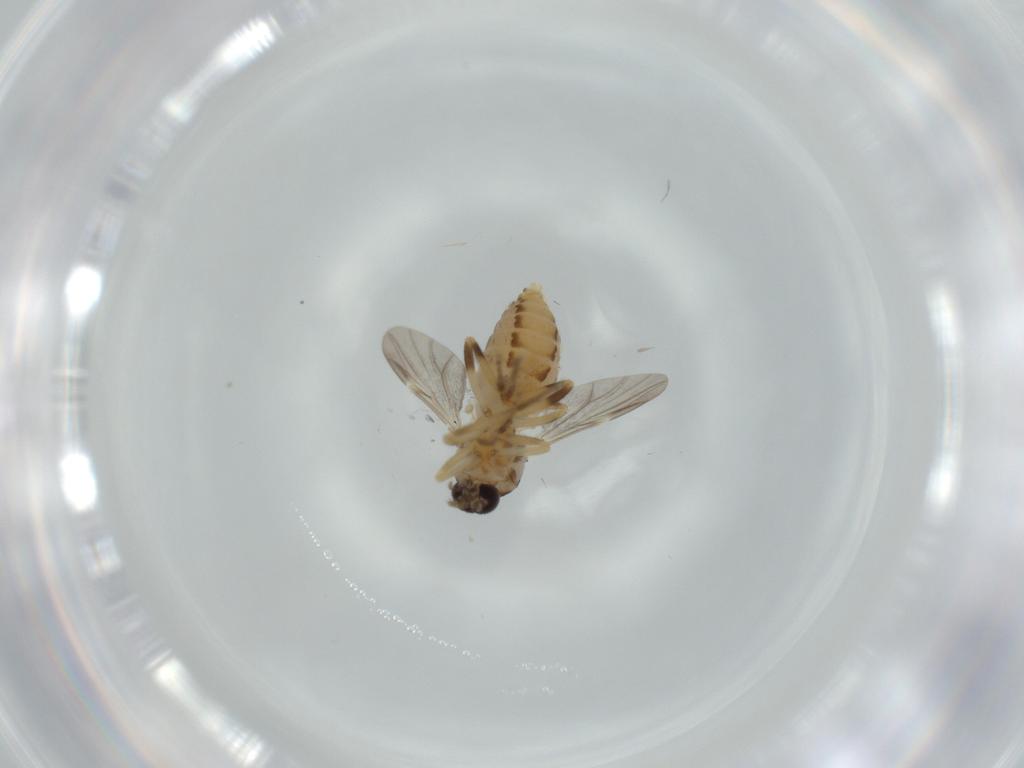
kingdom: Animalia
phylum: Arthropoda
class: Insecta
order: Diptera
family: Ceratopogonidae
